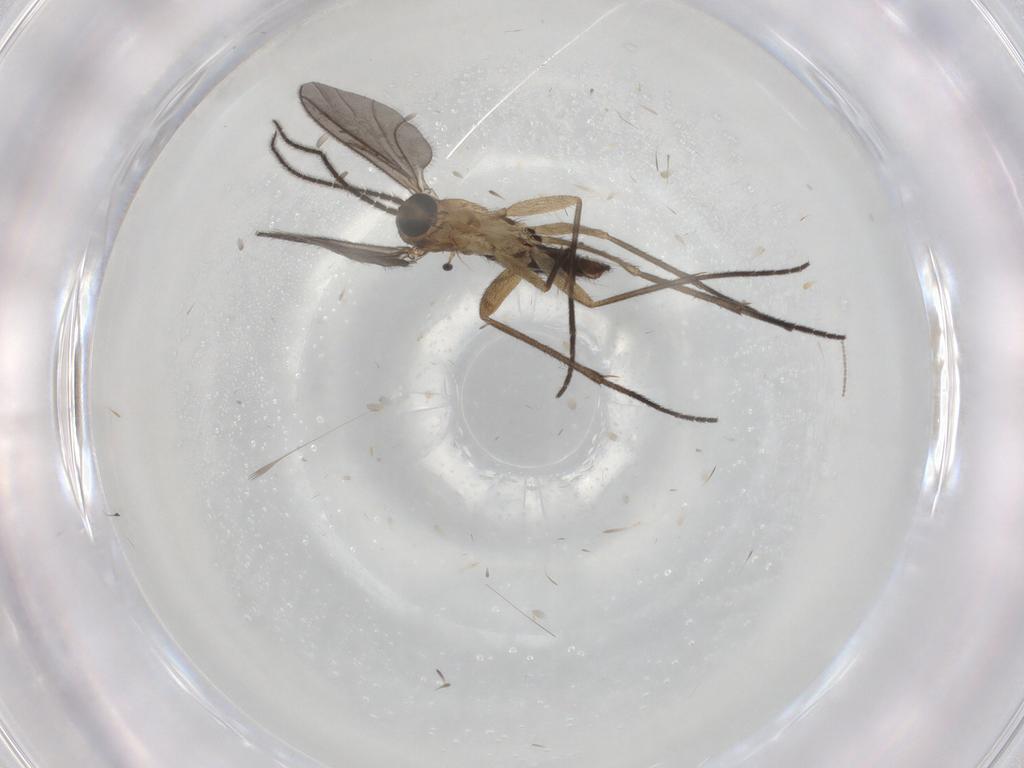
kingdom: Animalia
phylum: Arthropoda
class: Insecta
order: Diptera
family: Sciaridae
